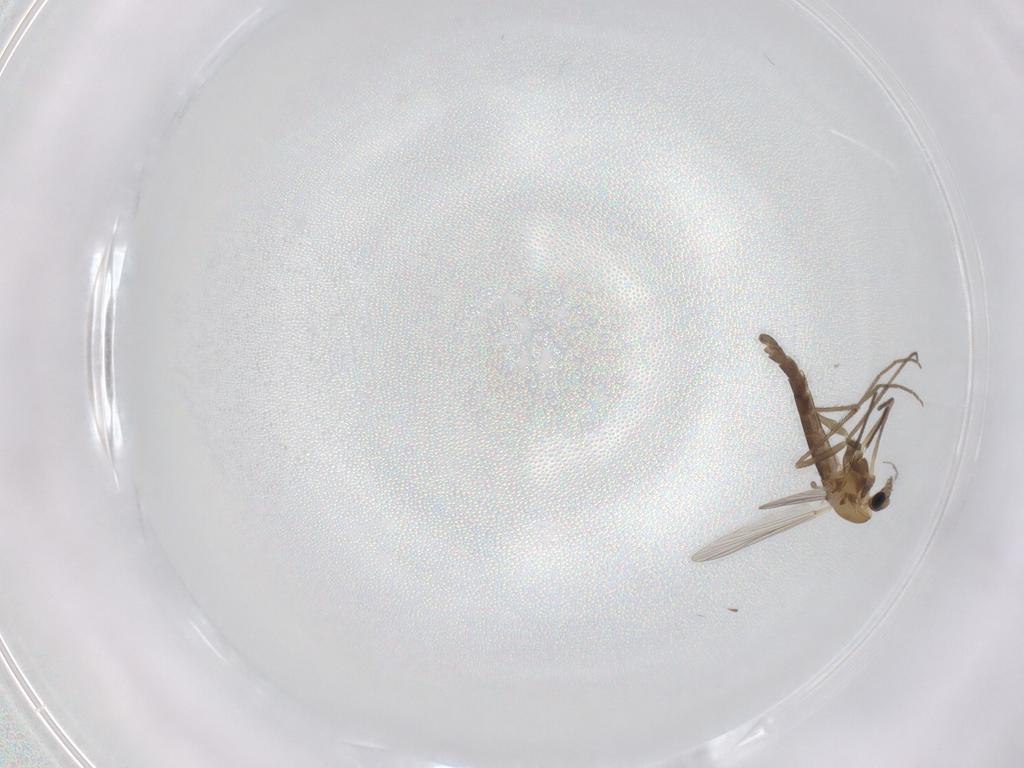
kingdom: Animalia
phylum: Arthropoda
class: Insecta
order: Diptera
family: Chironomidae
